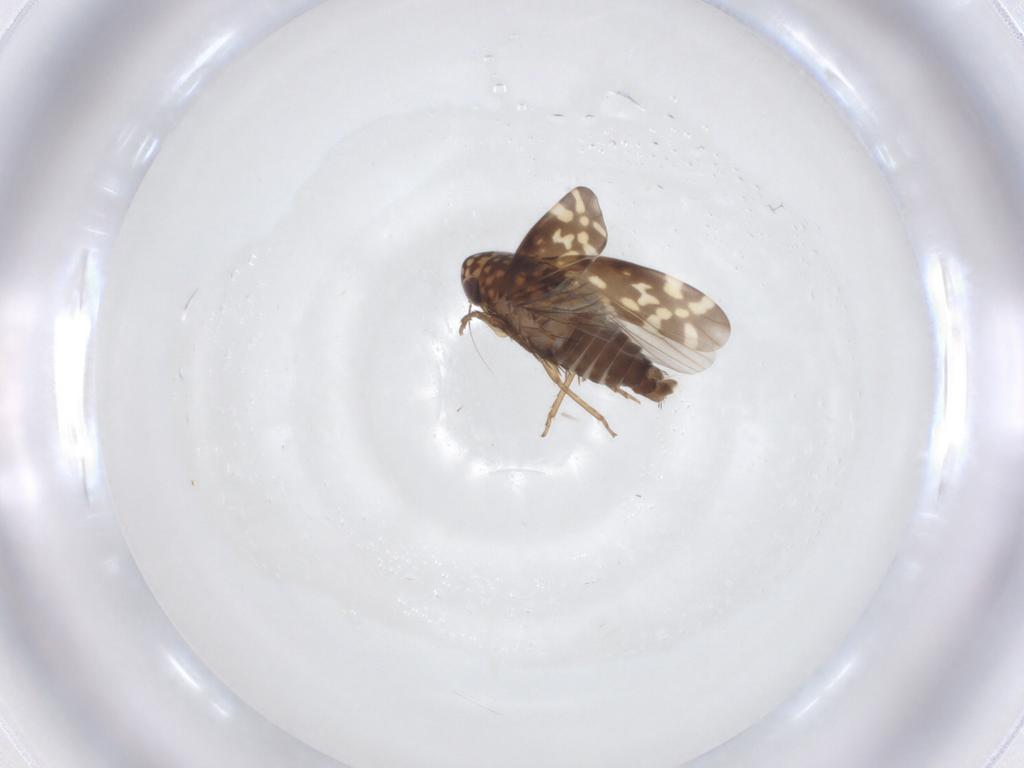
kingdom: Animalia
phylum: Arthropoda
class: Insecta
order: Hemiptera
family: Cicadellidae
